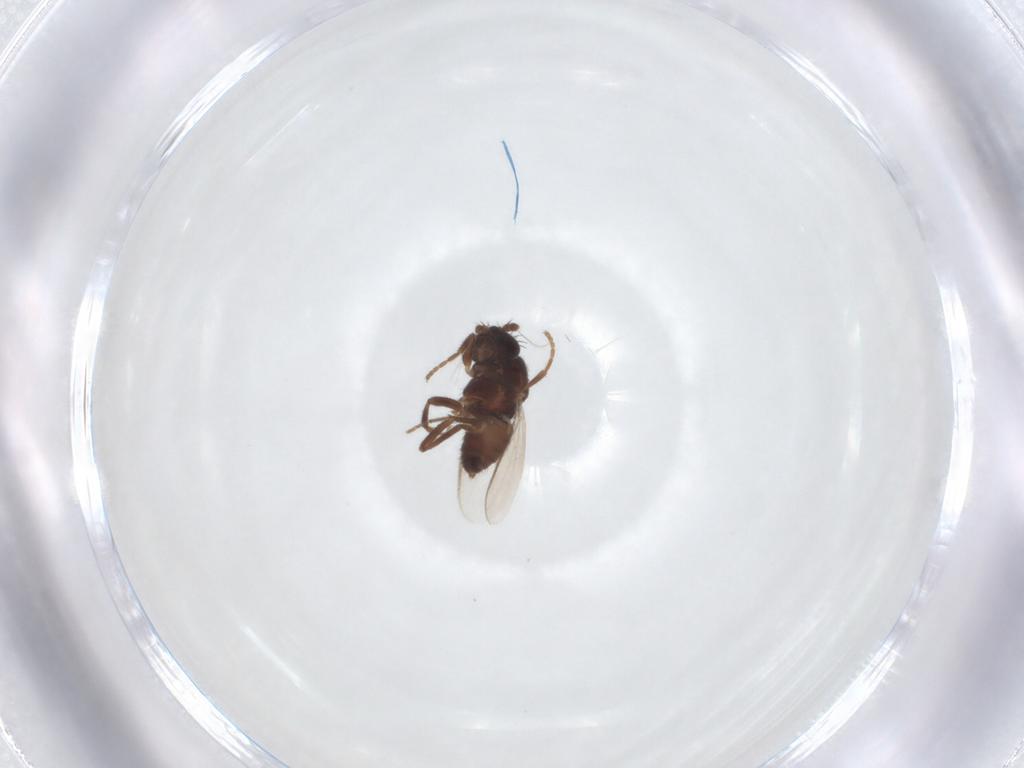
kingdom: Animalia
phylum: Arthropoda
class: Insecta
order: Diptera
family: Sphaeroceridae
